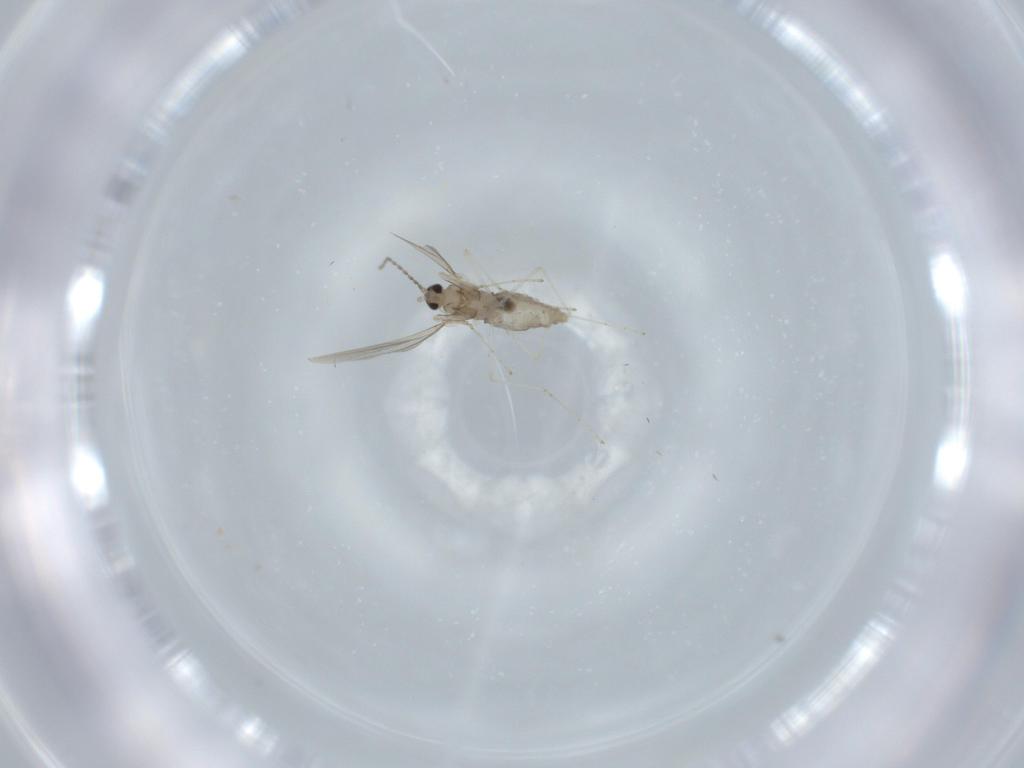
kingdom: Animalia
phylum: Arthropoda
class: Insecta
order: Diptera
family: Cecidomyiidae
